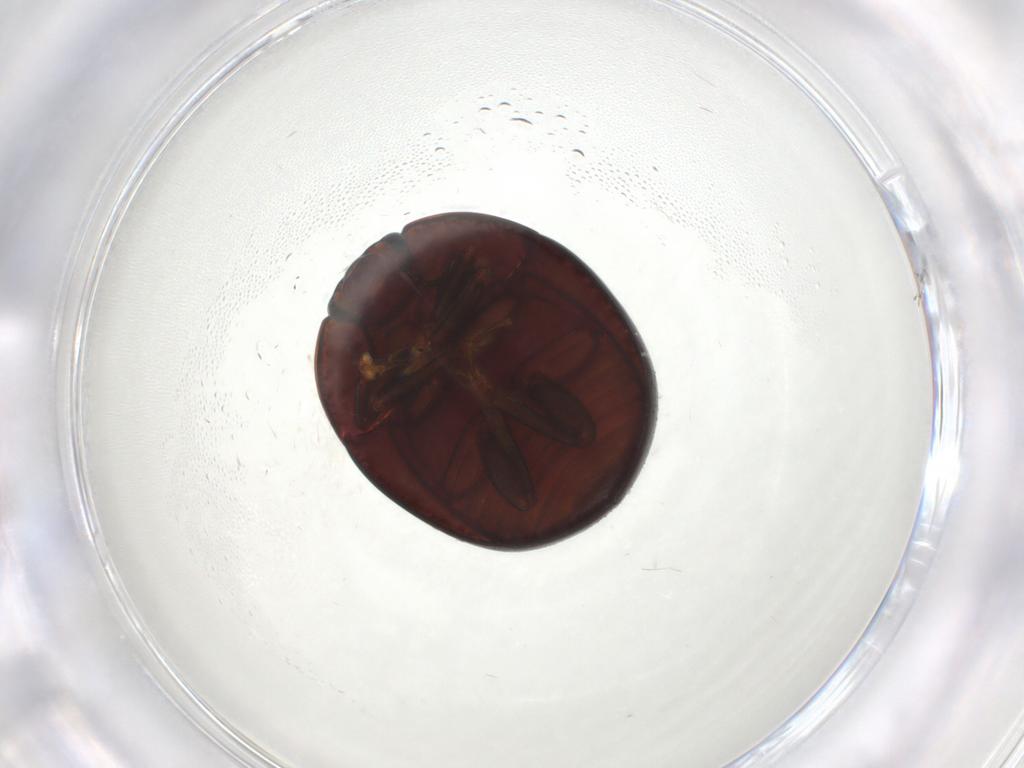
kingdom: Animalia
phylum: Arthropoda
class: Insecta
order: Coleoptera
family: Nitidulidae
